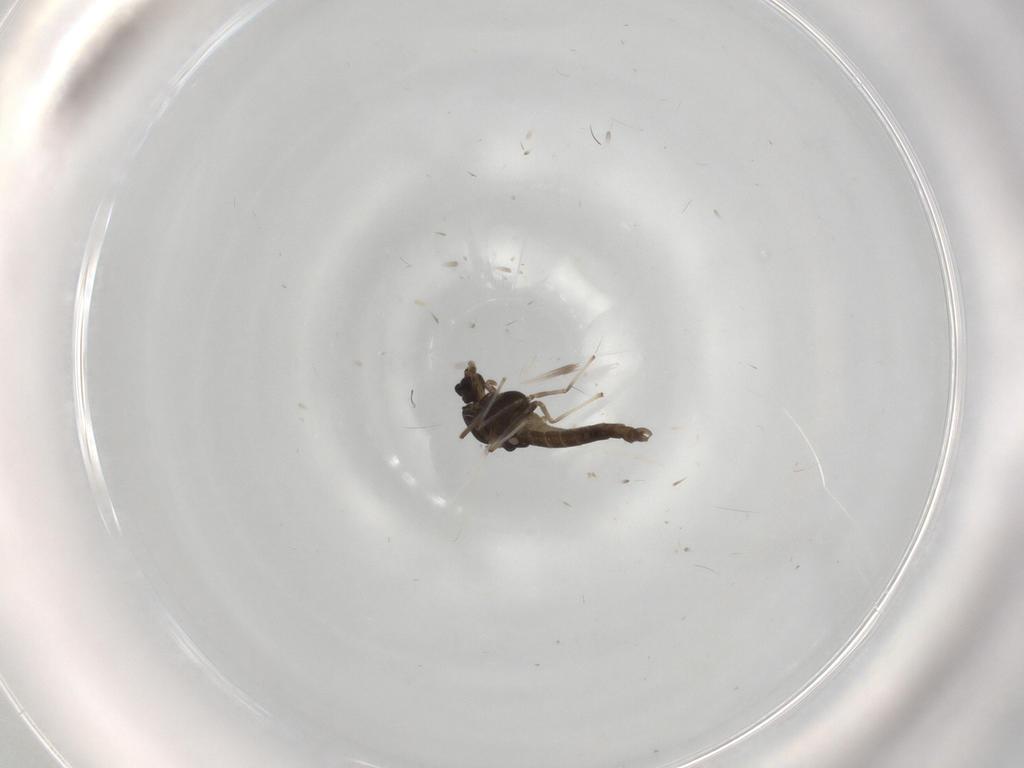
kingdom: Animalia
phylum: Arthropoda
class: Insecta
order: Diptera
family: Chironomidae
